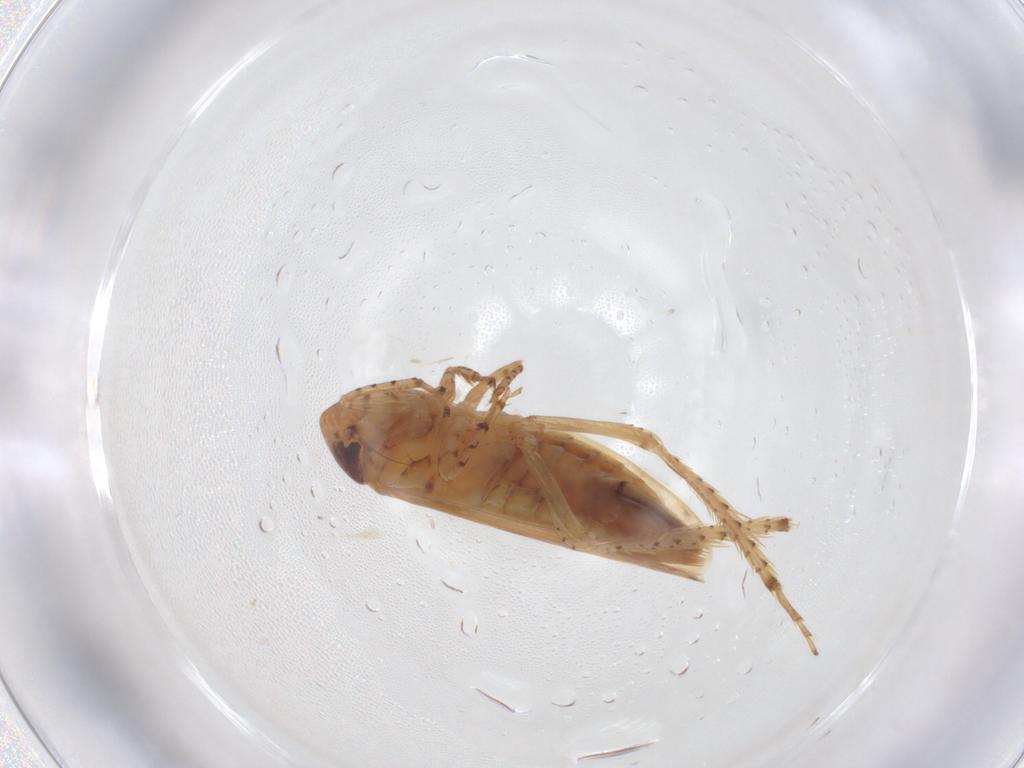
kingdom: Animalia
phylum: Arthropoda
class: Insecta
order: Hemiptera
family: Cicadellidae
